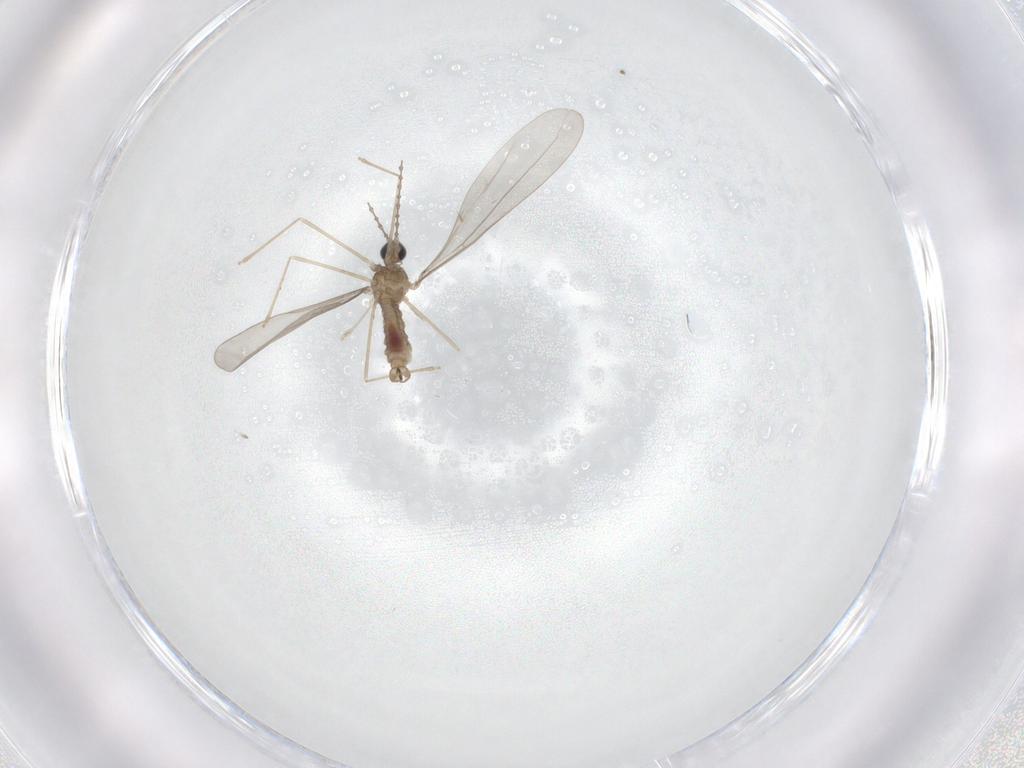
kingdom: Animalia
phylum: Arthropoda
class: Insecta
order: Diptera
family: Cecidomyiidae
